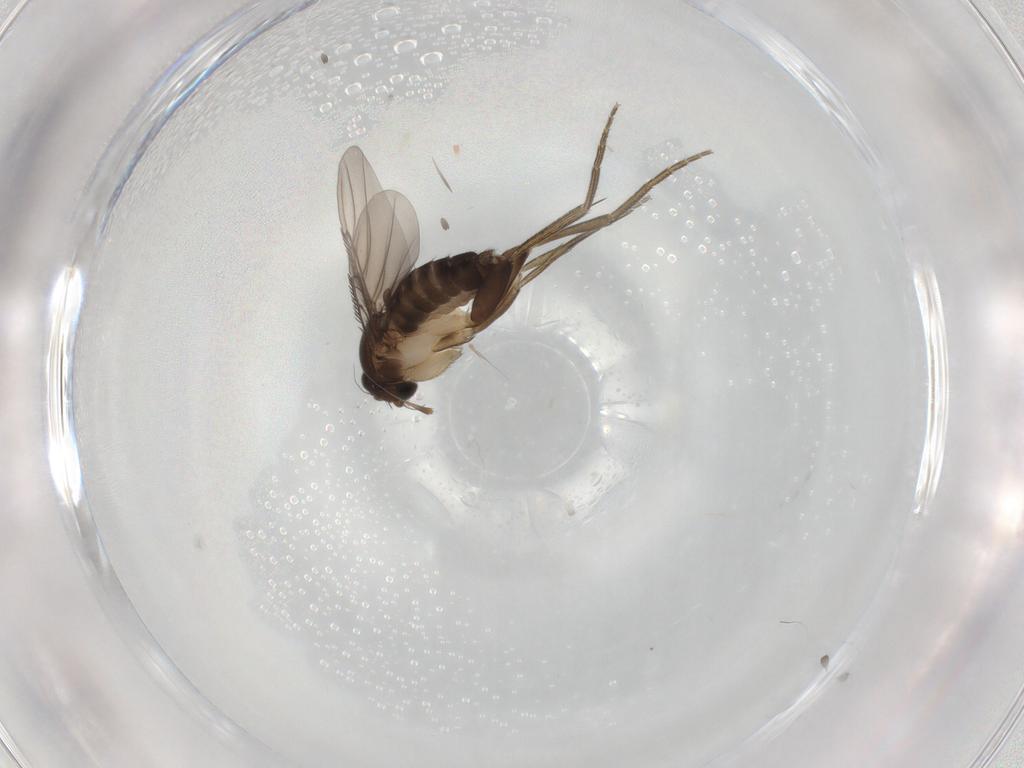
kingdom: Animalia
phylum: Arthropoda
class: Insecta
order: Diptera
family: Phoridae
